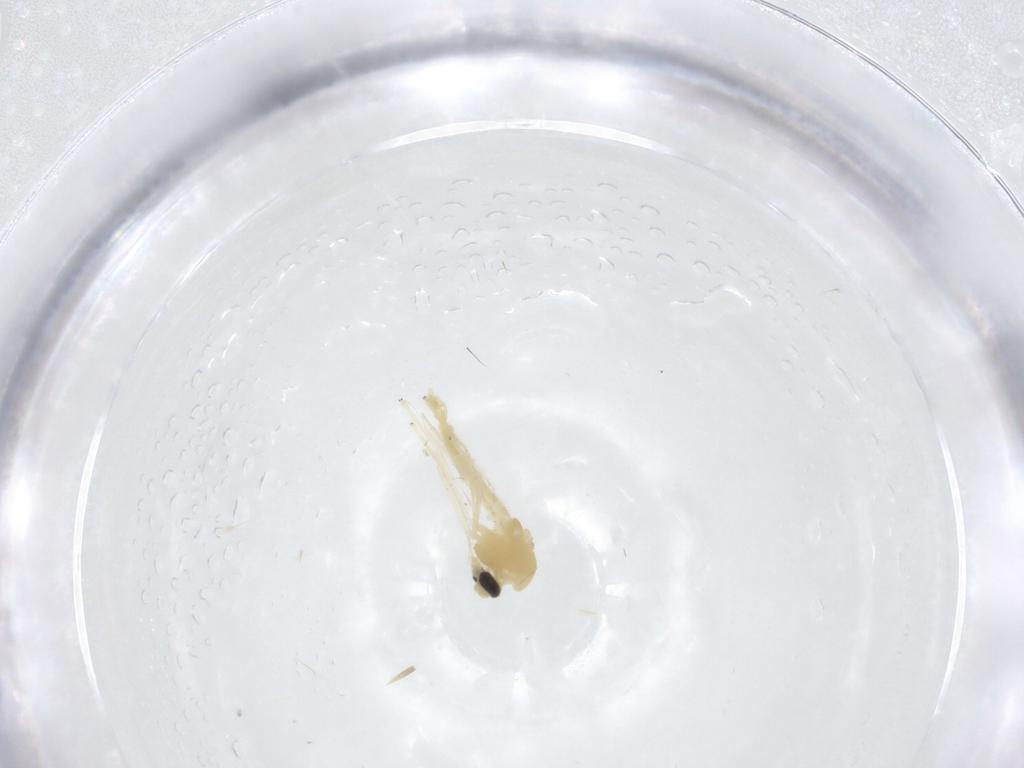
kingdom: Animalia
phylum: Arthropoda
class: Insecta
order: Diptera
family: Chironomidae
